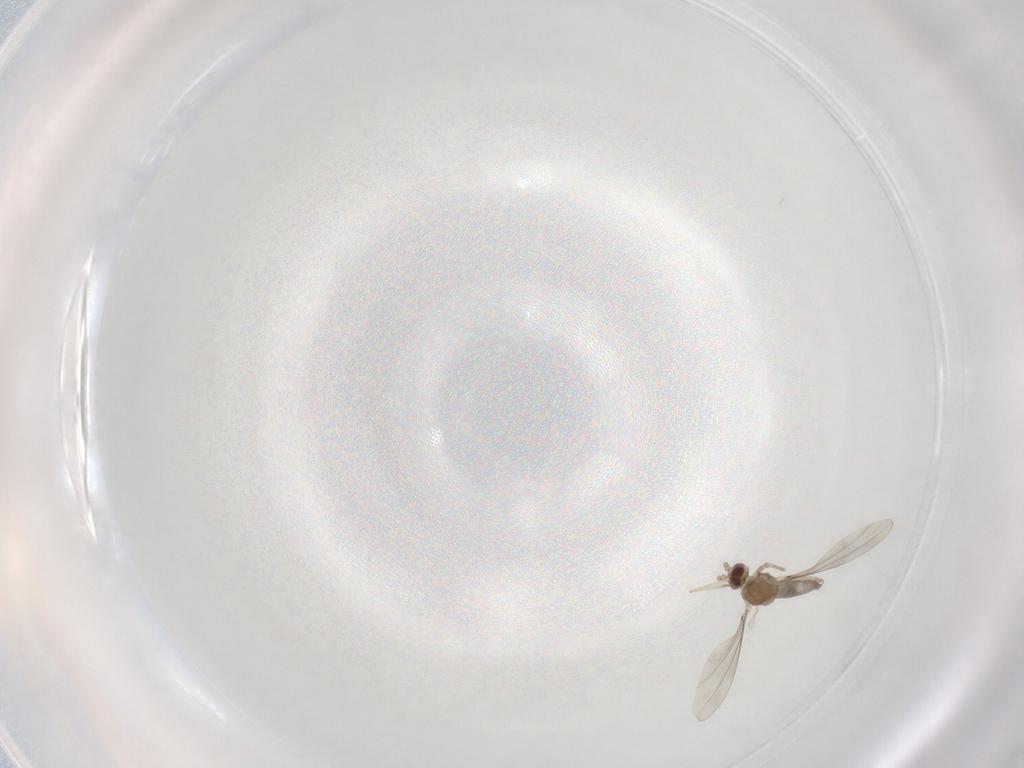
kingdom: Animalia
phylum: Arthropoda
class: Insecta
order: Diptera
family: Cecidomyiidae
